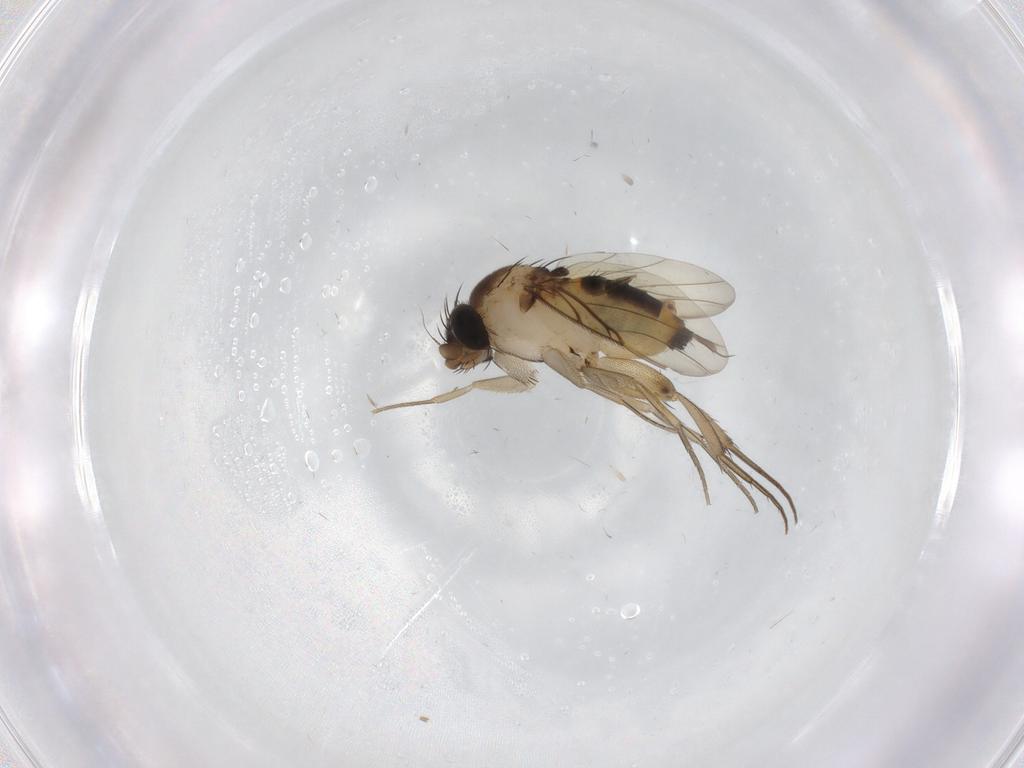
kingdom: Animalia
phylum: Arthropoda
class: Insecta
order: Diptera
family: Phoridae
